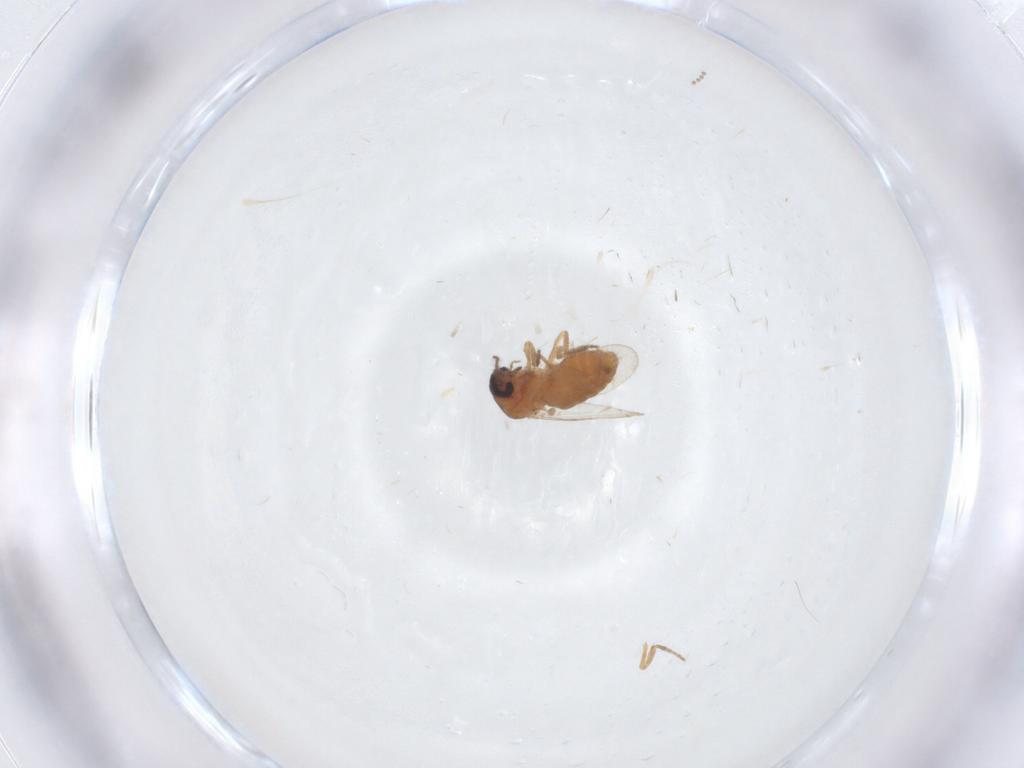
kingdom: Animalia
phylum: Arthropoda
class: Insecta
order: Diptera
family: Ceratopogonidae
